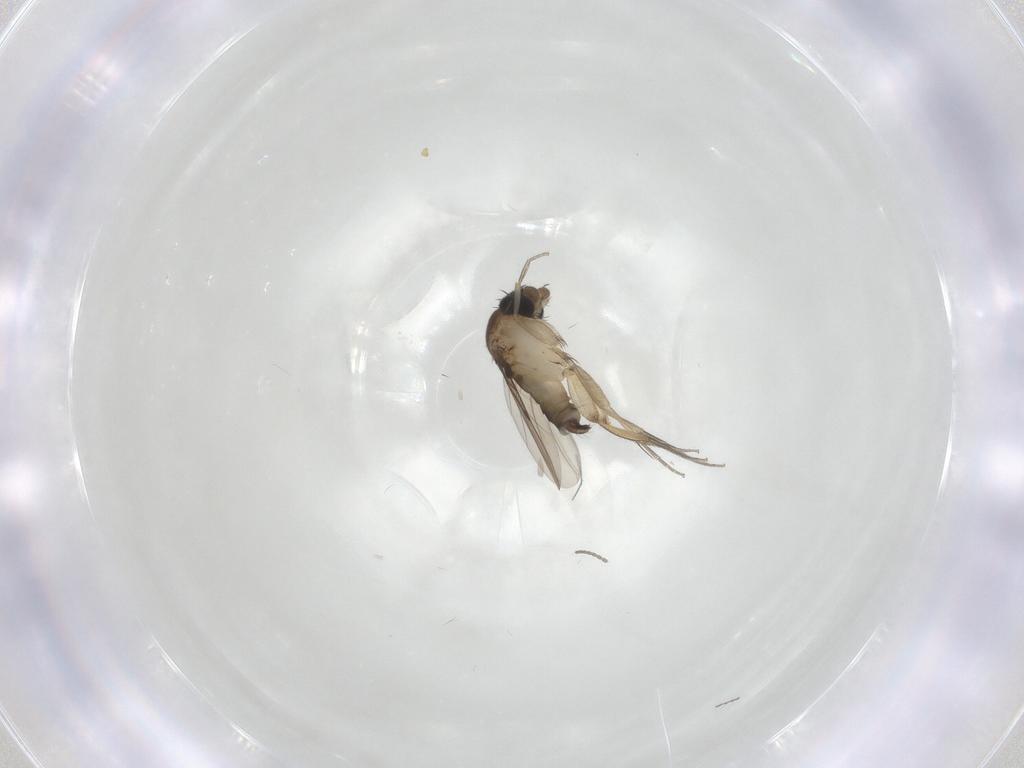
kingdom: Animalia
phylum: Arthropoda
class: Insecta
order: Diptera
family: Phoridae
